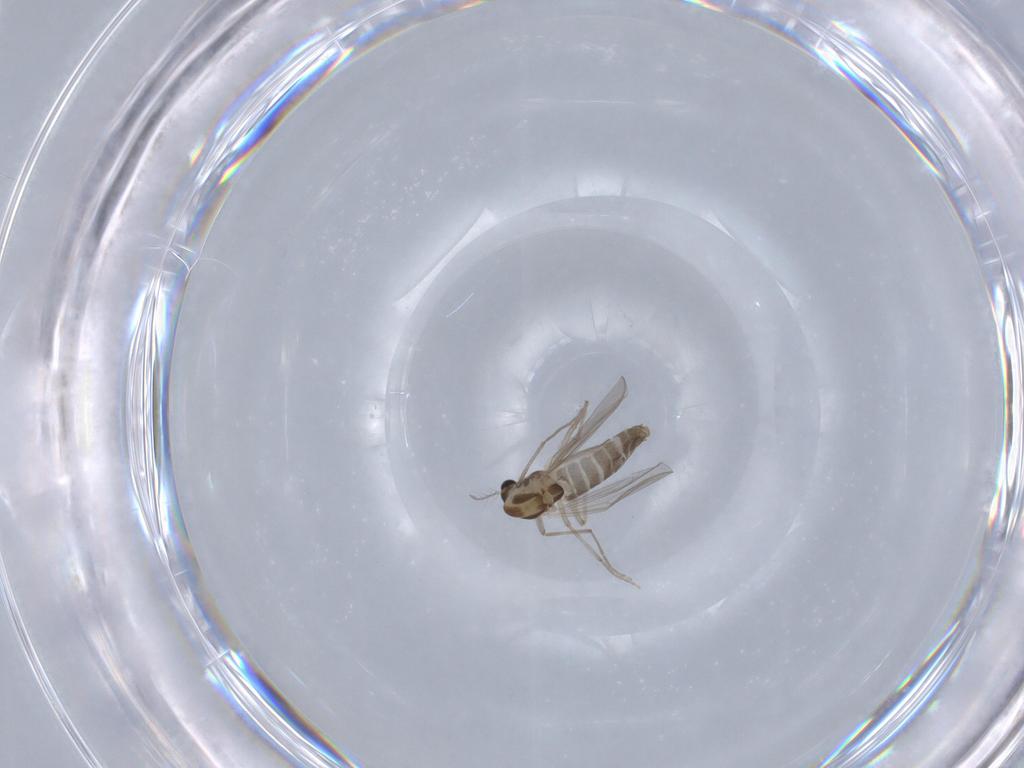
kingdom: Animalia
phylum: Arthropoda
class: Insecta
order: Diptera
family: Chironomidae
